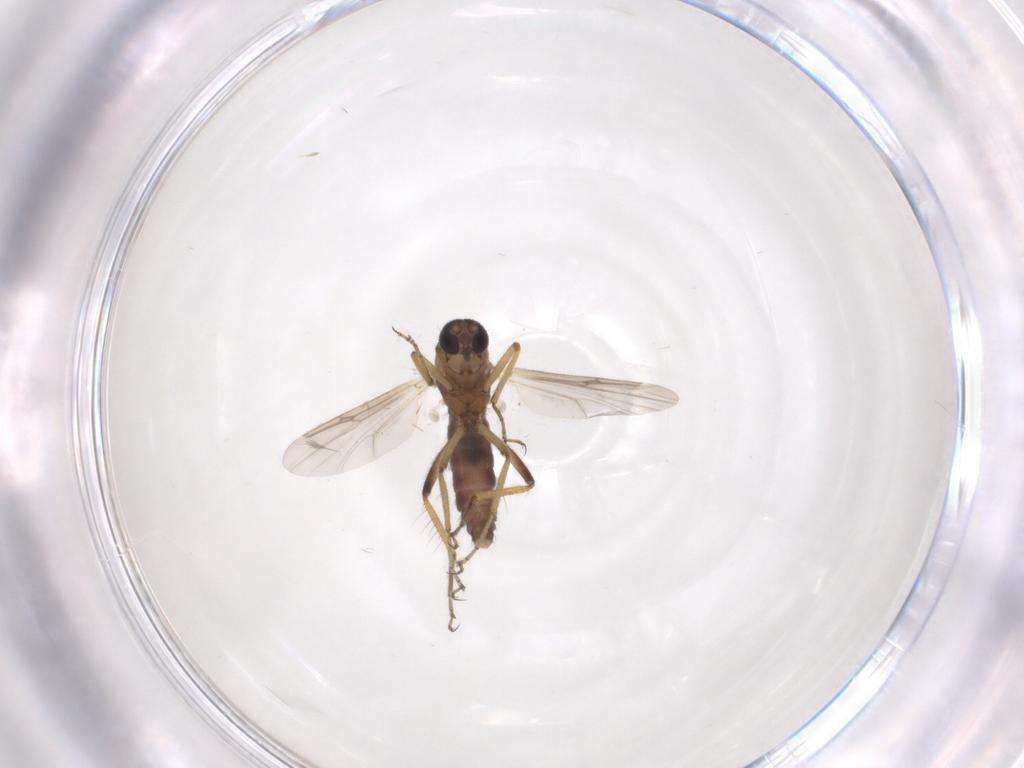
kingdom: Animalia
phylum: Arthropoda
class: Insecta
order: Diptera
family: Ceratopogonidae
